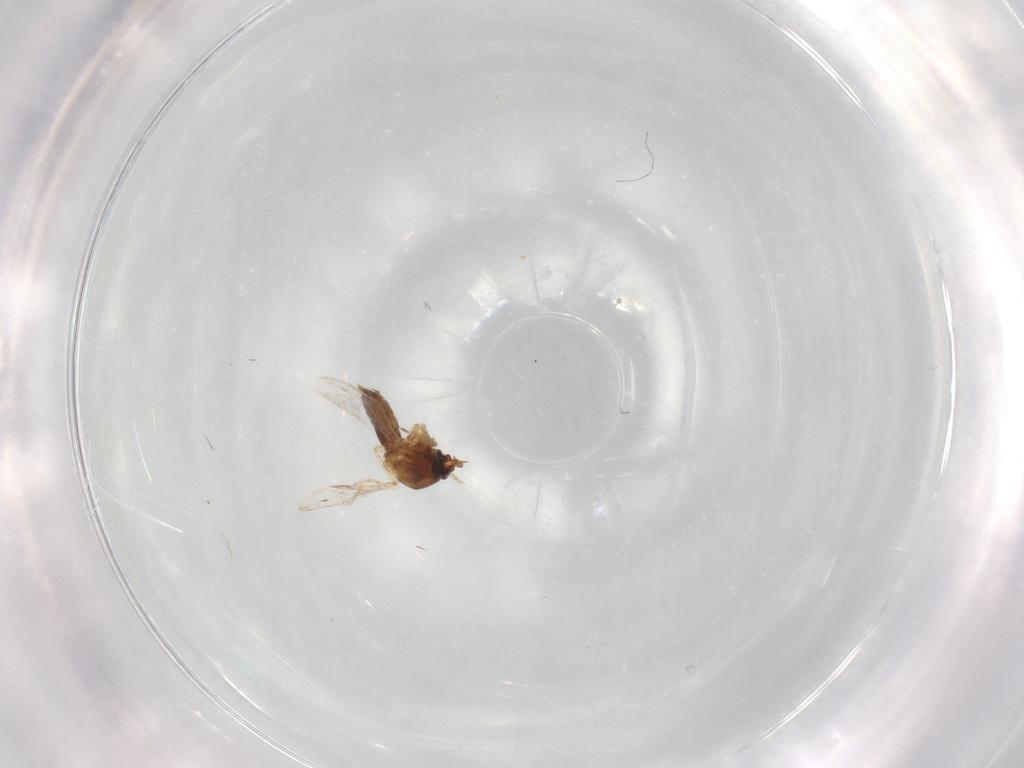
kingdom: Animalia
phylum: Arthropoda
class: Insecta
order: Diptera
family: Ceratopogonidae
